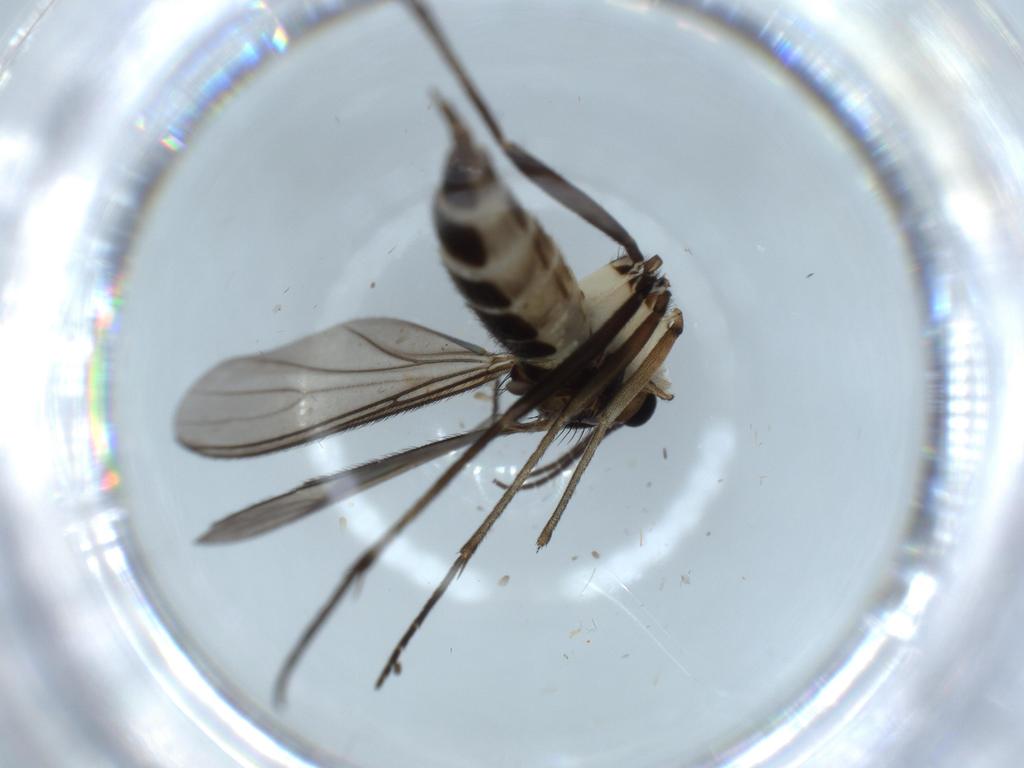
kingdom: Animalia
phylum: Arthropoda
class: Insecta
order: Diptera
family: Sciaridae
